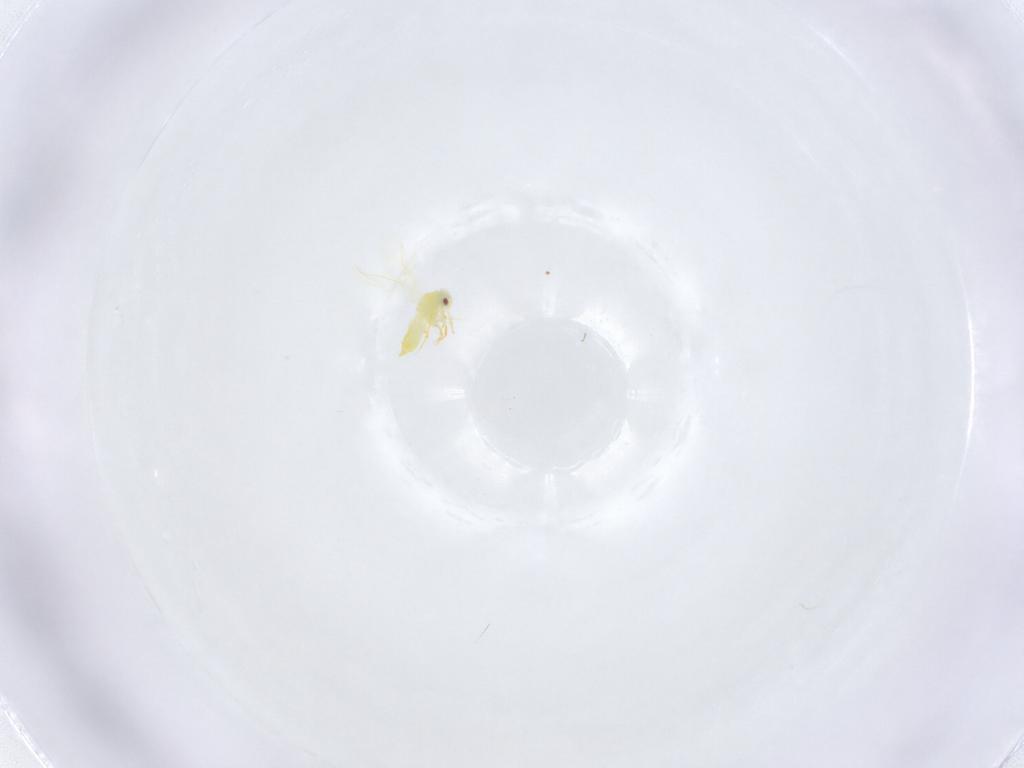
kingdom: Animalia
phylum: Arthropoda
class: Insecta
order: Hemiptera
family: Aleyrodidae
